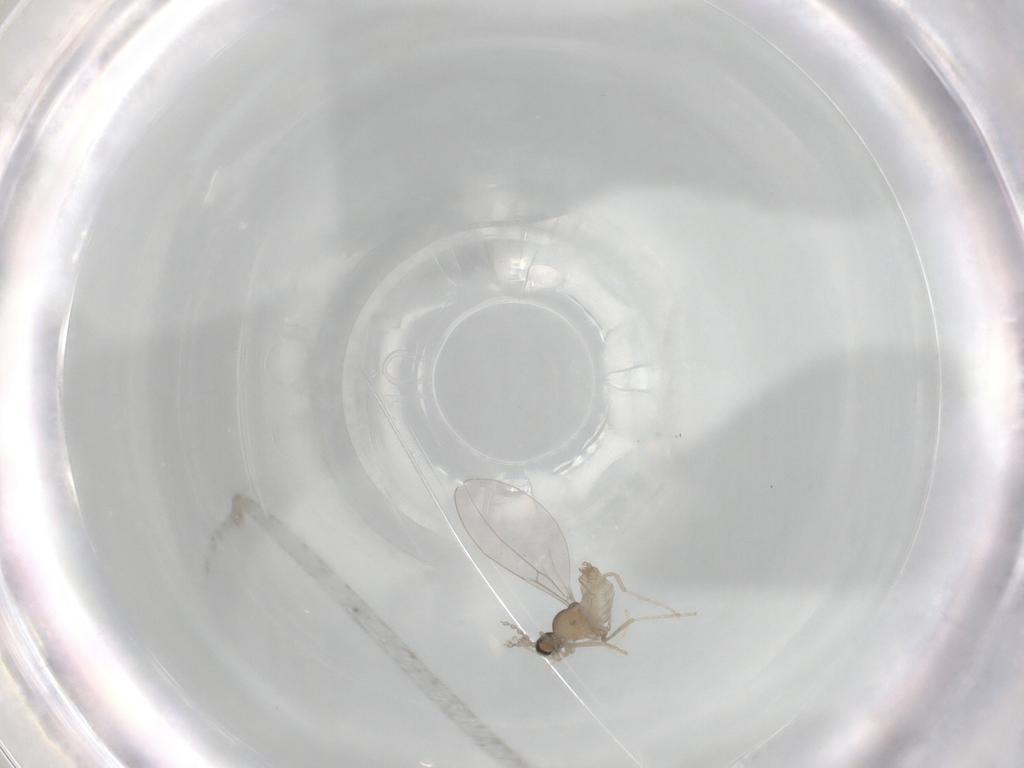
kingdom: Animalia
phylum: Arthropoda
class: Insecta
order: Diptera
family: Cecidomyiidae
